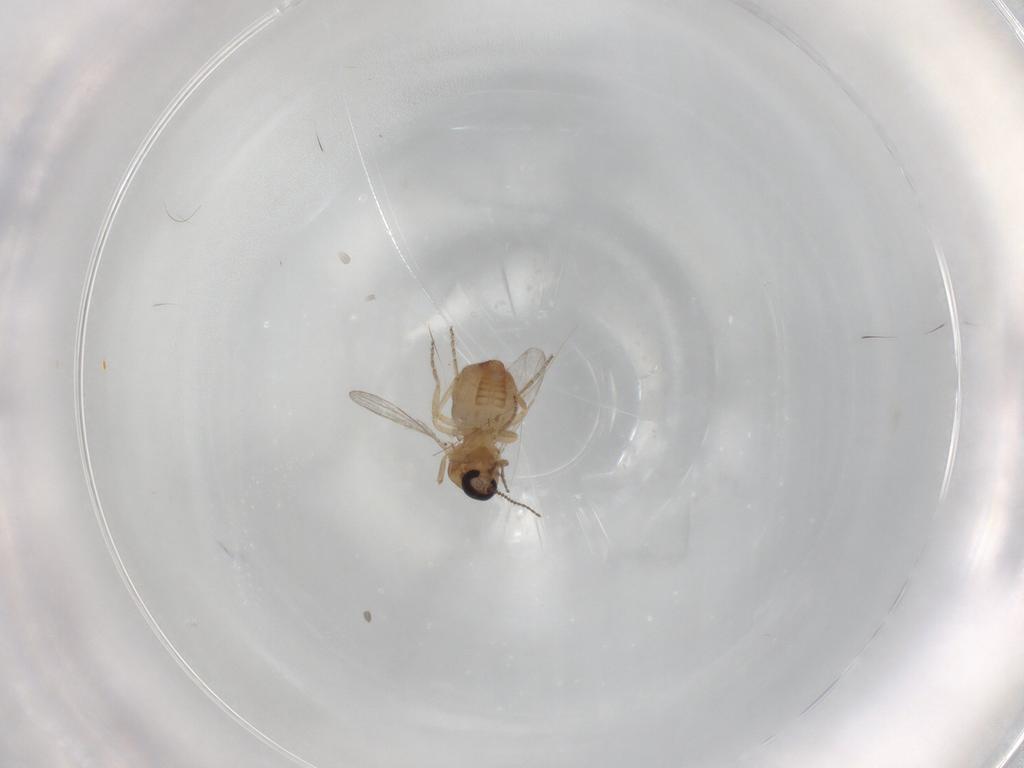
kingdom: Animalia
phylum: Arthropoda
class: Insecta
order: Diptera
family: Ceratopogonidae
